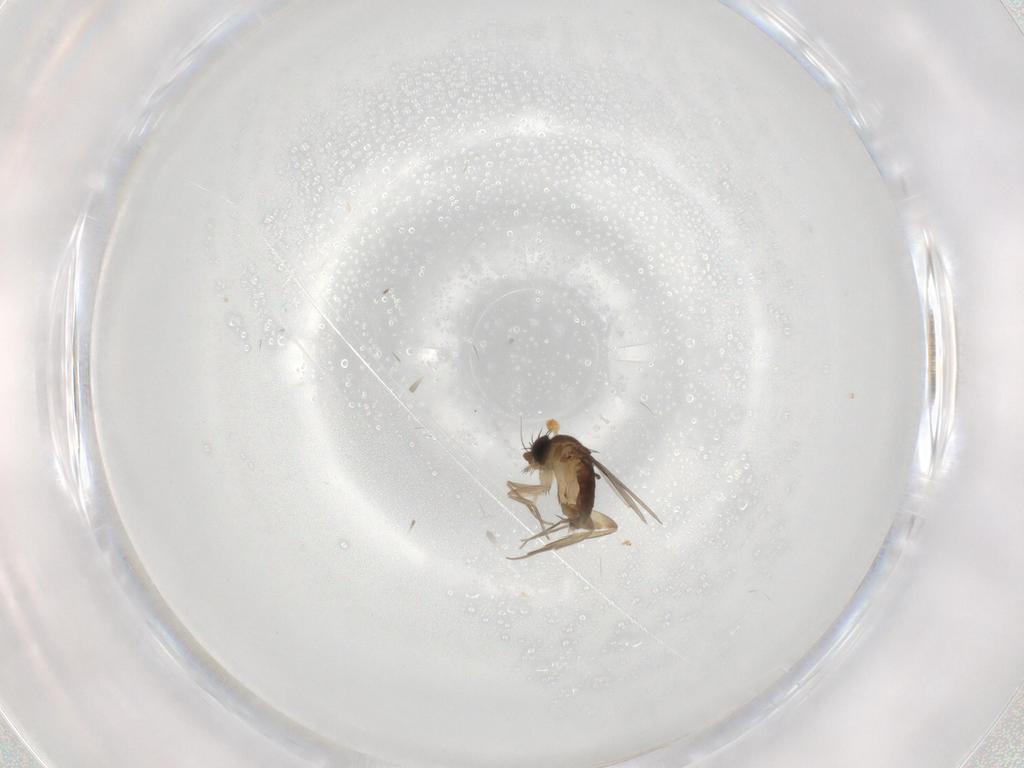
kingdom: Animalia
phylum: Arthropoda
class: Insecta
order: Diptera
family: Phoridae
